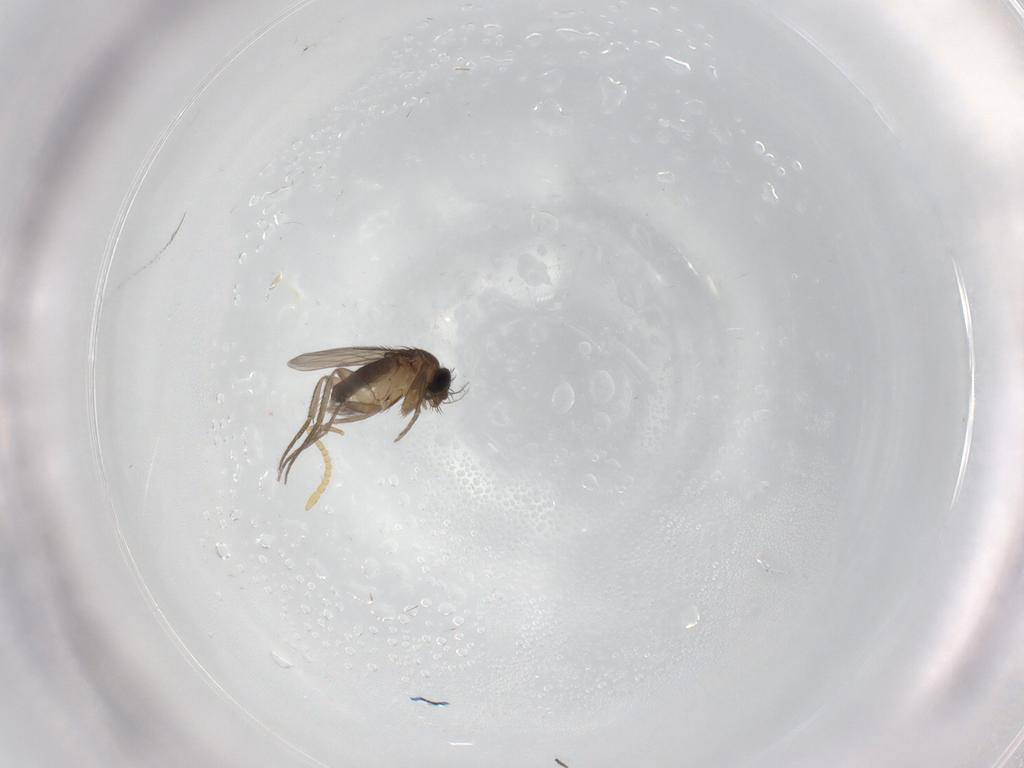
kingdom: Animalia
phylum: Arthropoda
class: Insecta
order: Diptera
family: Phoridae
